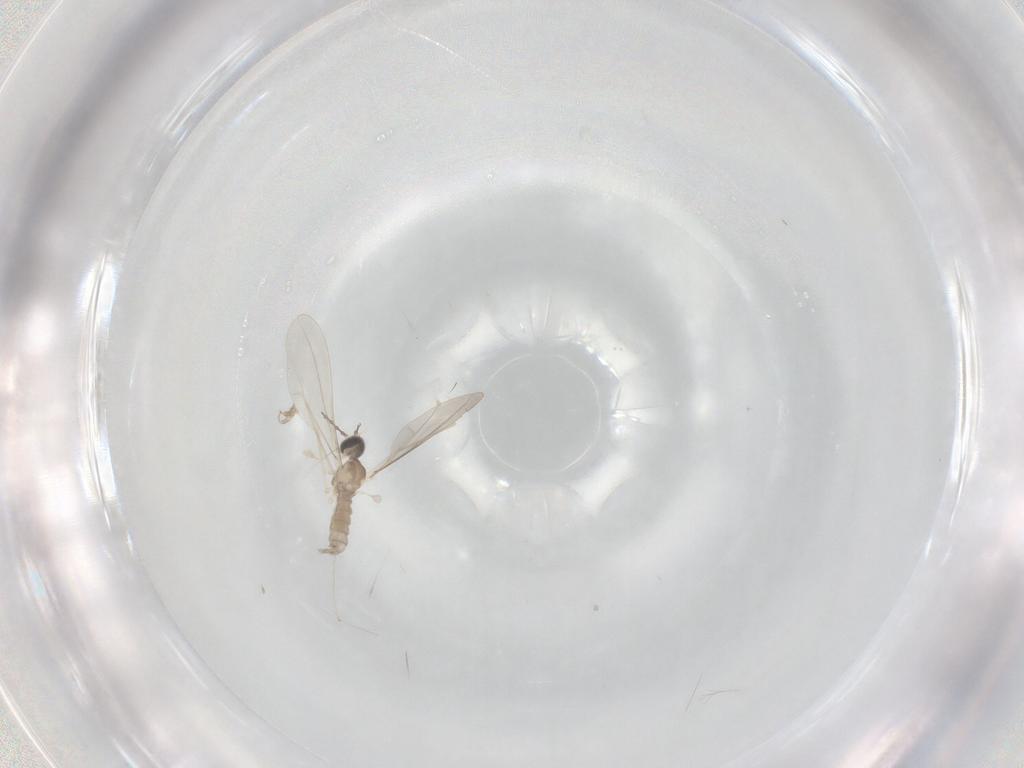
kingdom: Animalia
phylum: Arthropoda
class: Insecta
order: Diptera
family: Cecidomyiidae
